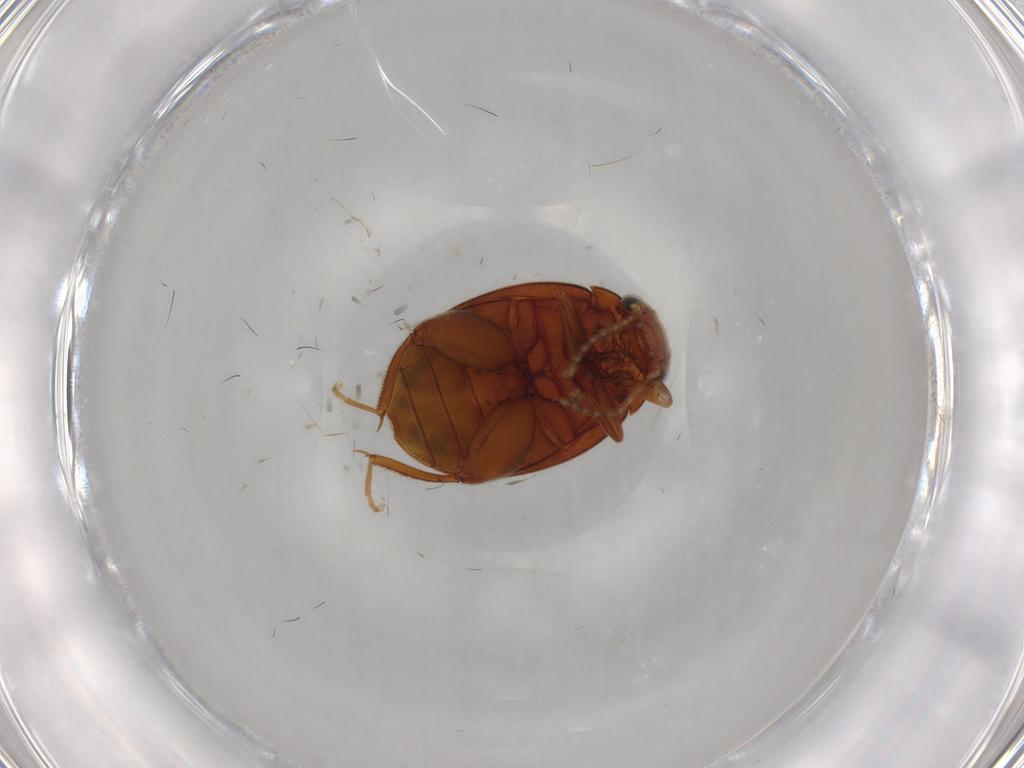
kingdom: Animalia
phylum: Arthropoda
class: Insecta
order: Coleoptera
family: Scirtidae
